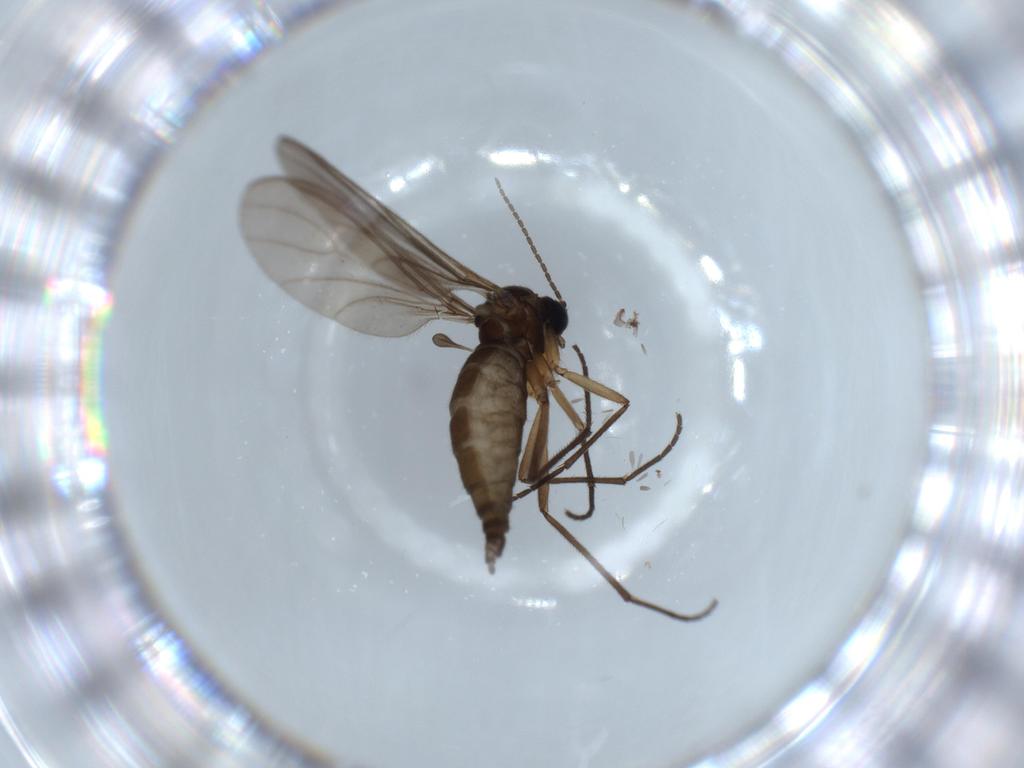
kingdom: Animalia
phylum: Arthropoda
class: Insecta
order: Diptera
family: Sciaridae
